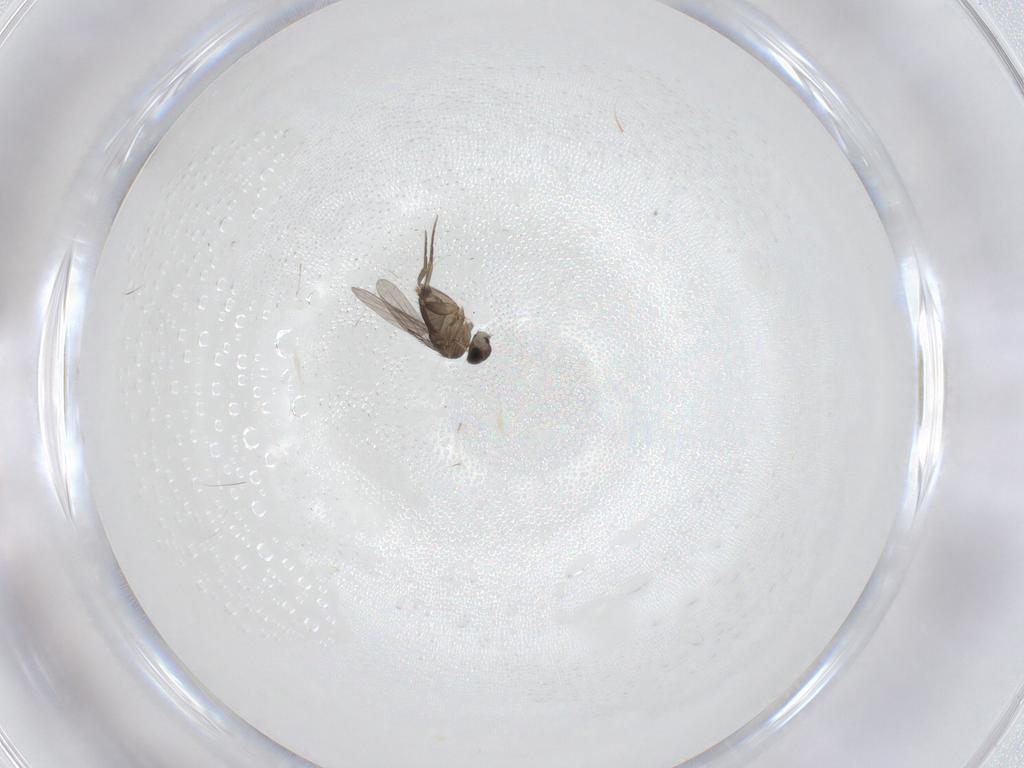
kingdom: Animalia
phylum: Arthropoda
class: Insecta
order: Diptera
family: Phoridae
